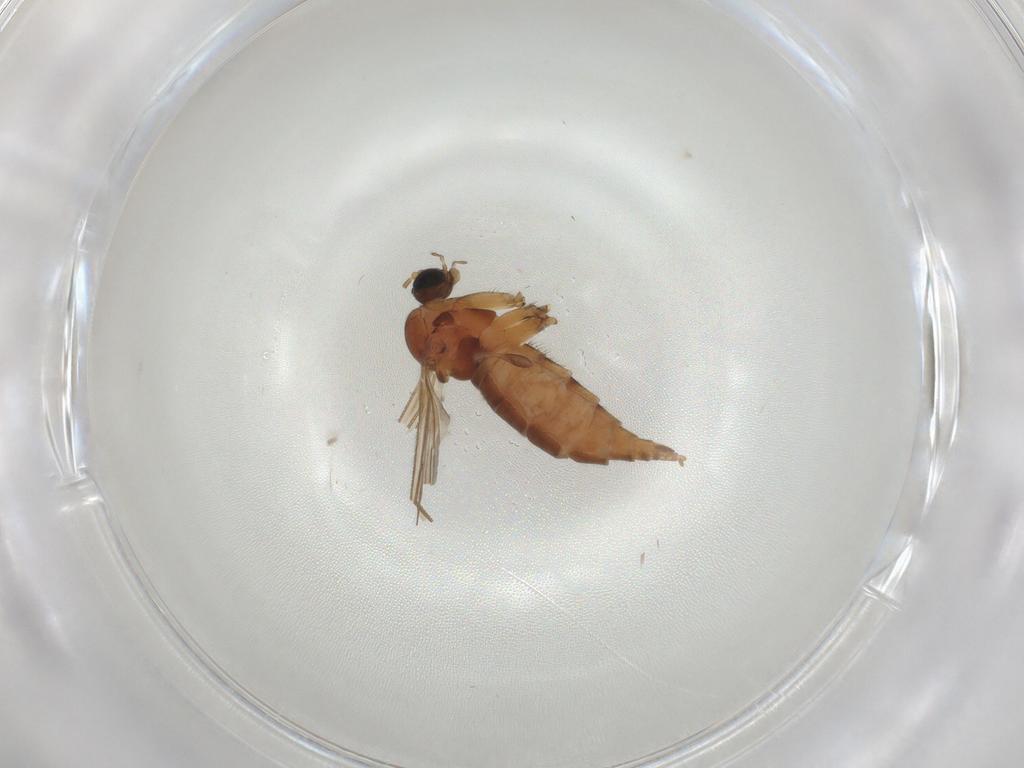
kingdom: Animalia
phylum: Arthropoda
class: Insecta
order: Diptera
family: Sciaridae
